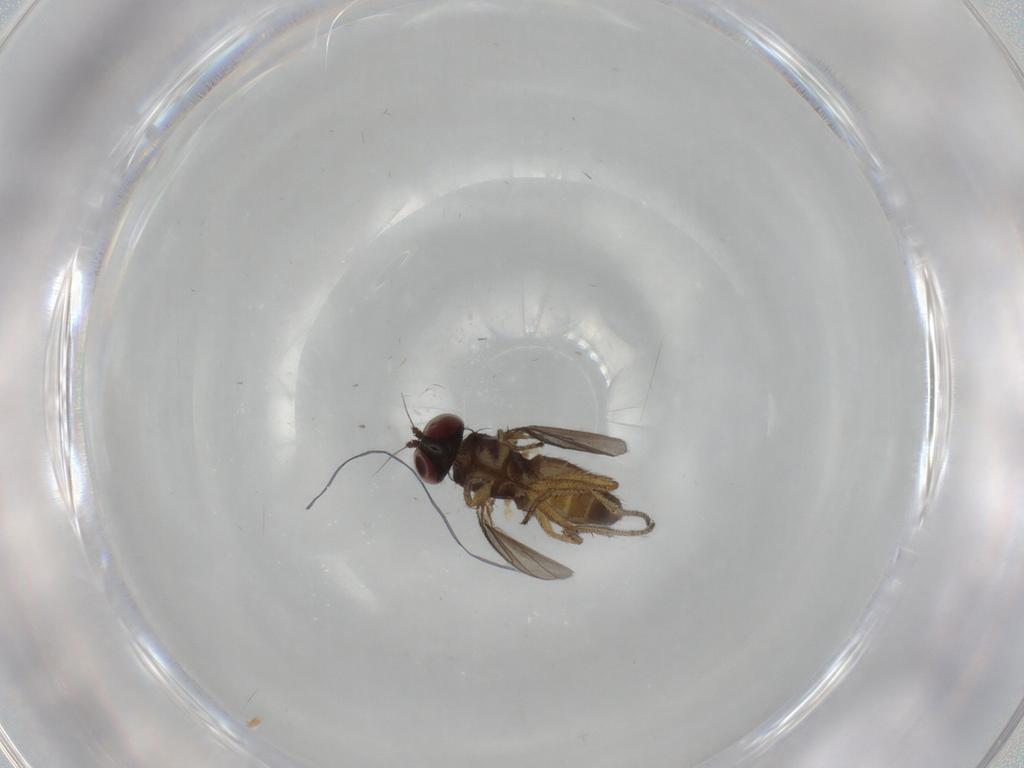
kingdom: Animalia
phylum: Arthropoda
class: Insecta
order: Diptera
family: Dolichopodidae
